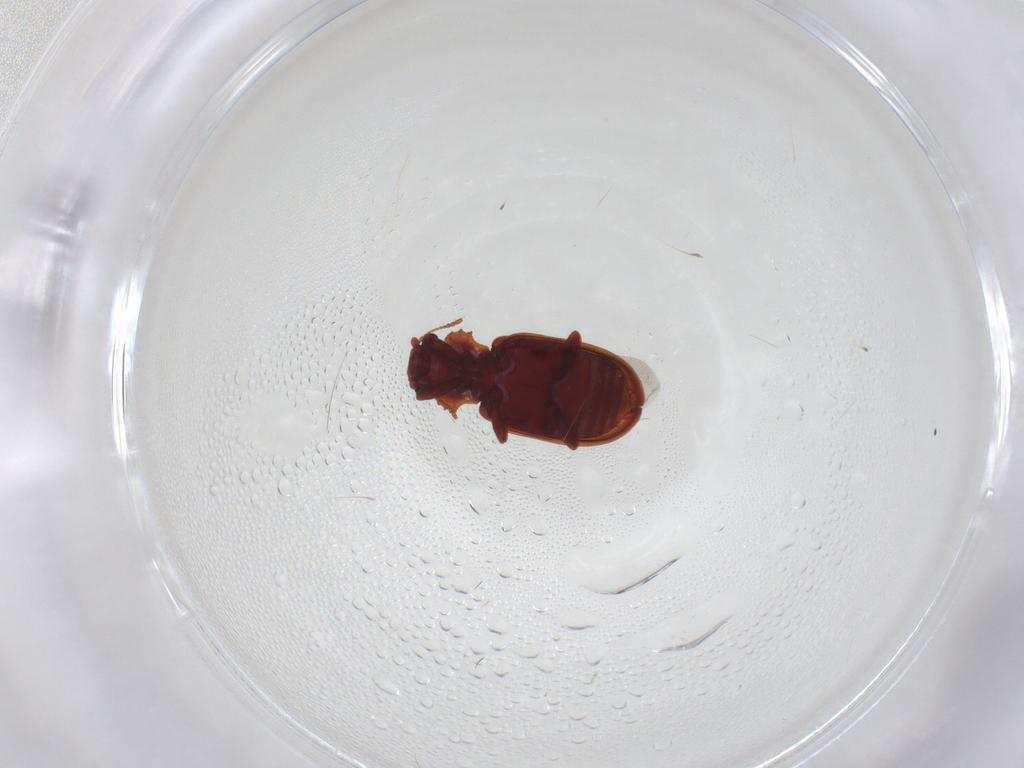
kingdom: Animalia
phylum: Arthropoda
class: Insecta
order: Coleoptera
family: Latridiidae
